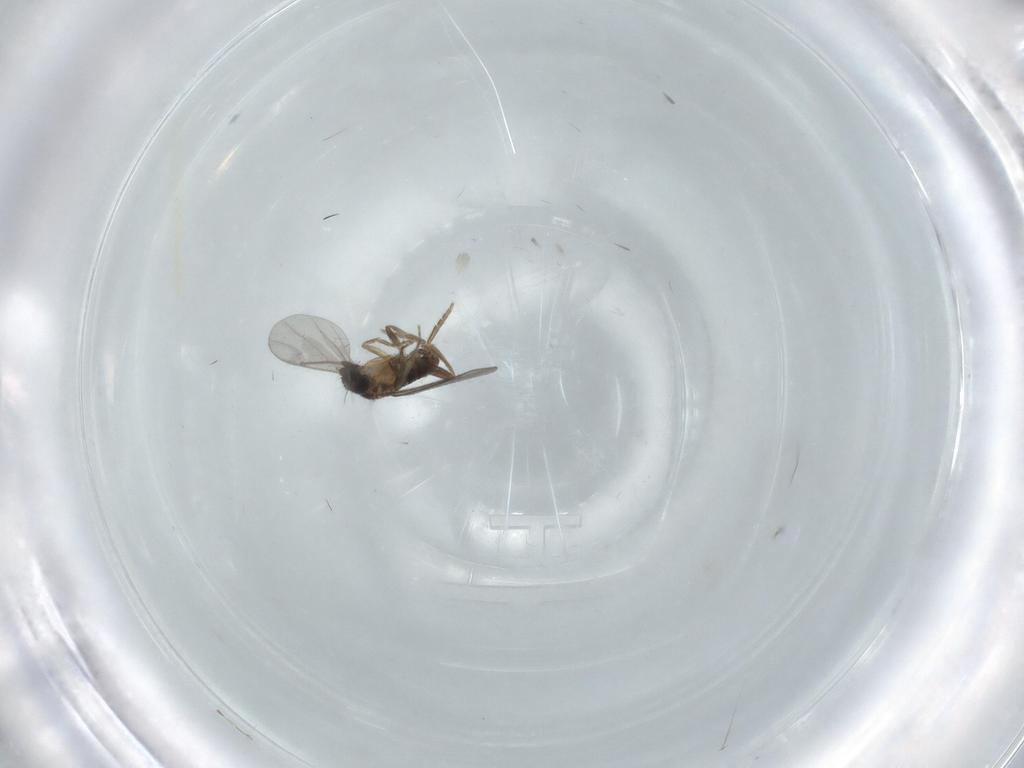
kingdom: Animalia
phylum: Arthropoda
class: Insecta
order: Diptera
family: Ceratopogonidae
